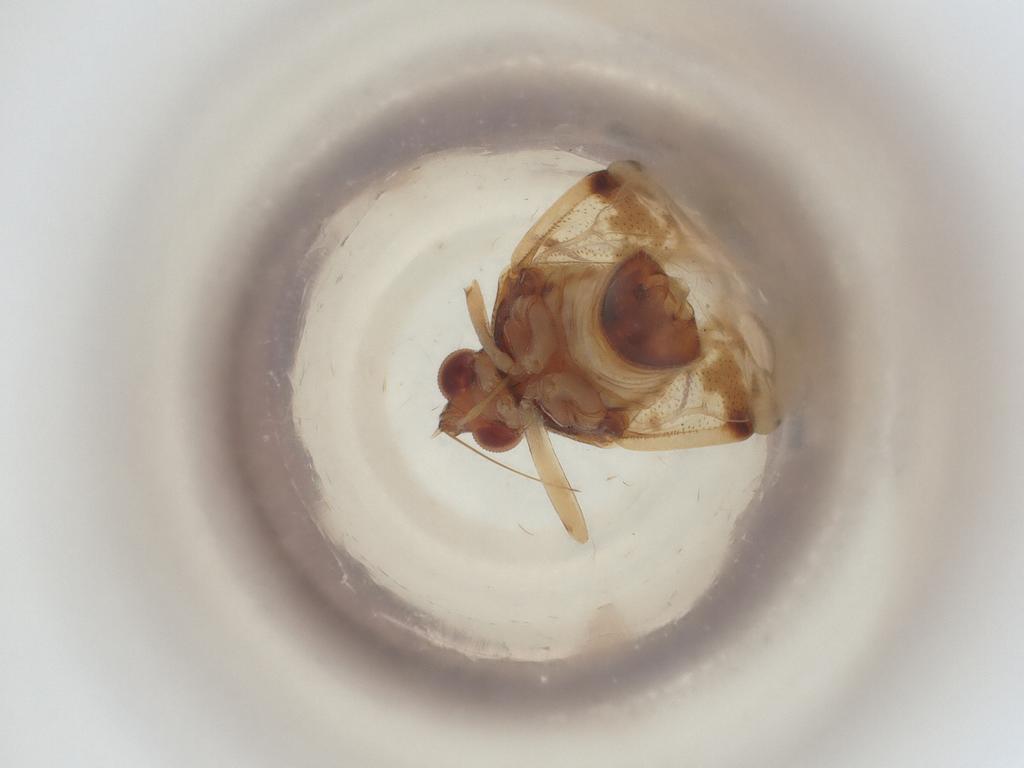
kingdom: Animalia
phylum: Arthropoda
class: Insecta
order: Hemiptera
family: Miridae
